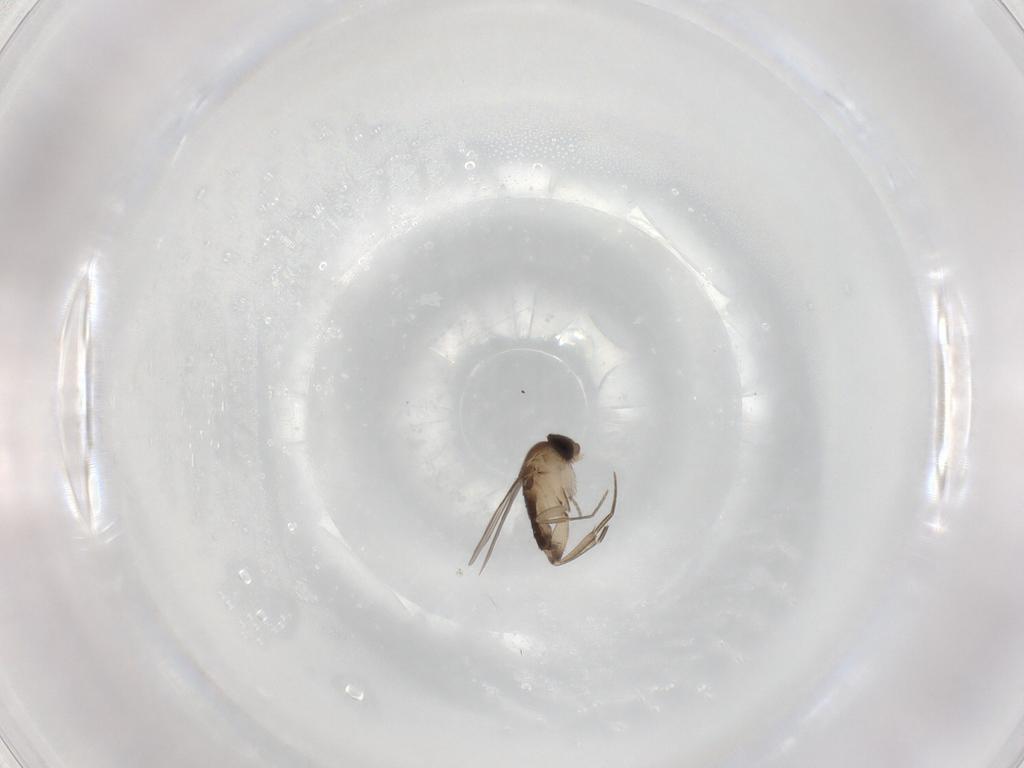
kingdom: Animalia
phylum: Arthropoda
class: Insecta
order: Diptera
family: Phoridae
